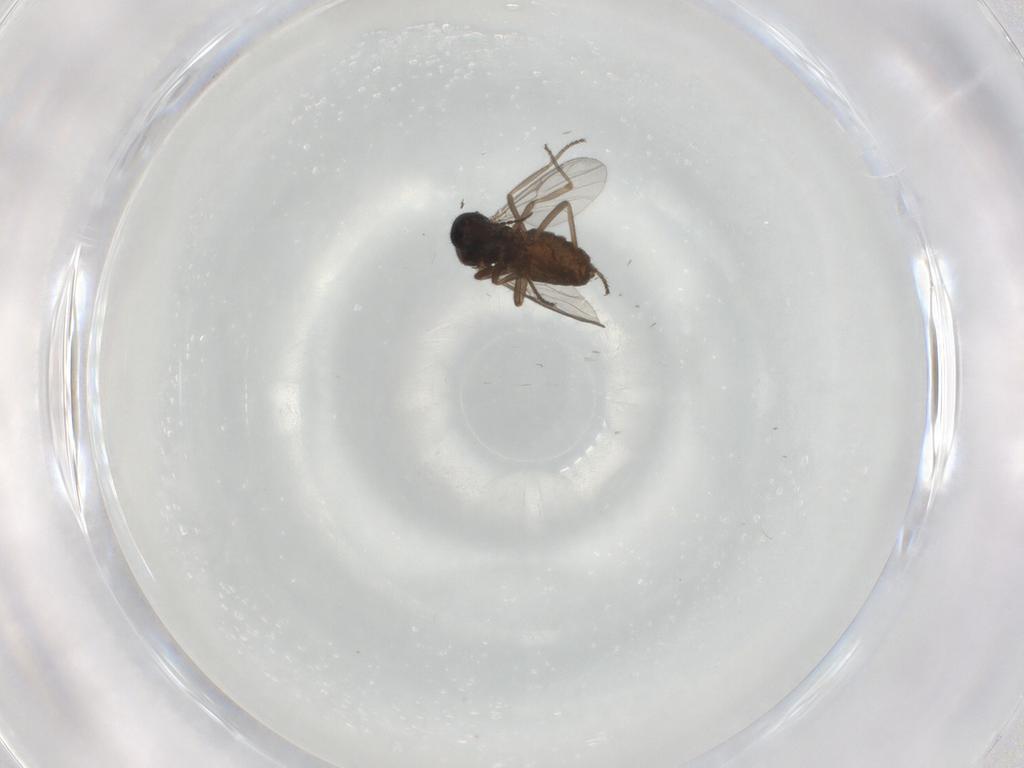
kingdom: Animalia
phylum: Arthropoda
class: Insecta
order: Diptera
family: Ceratopogonidae
